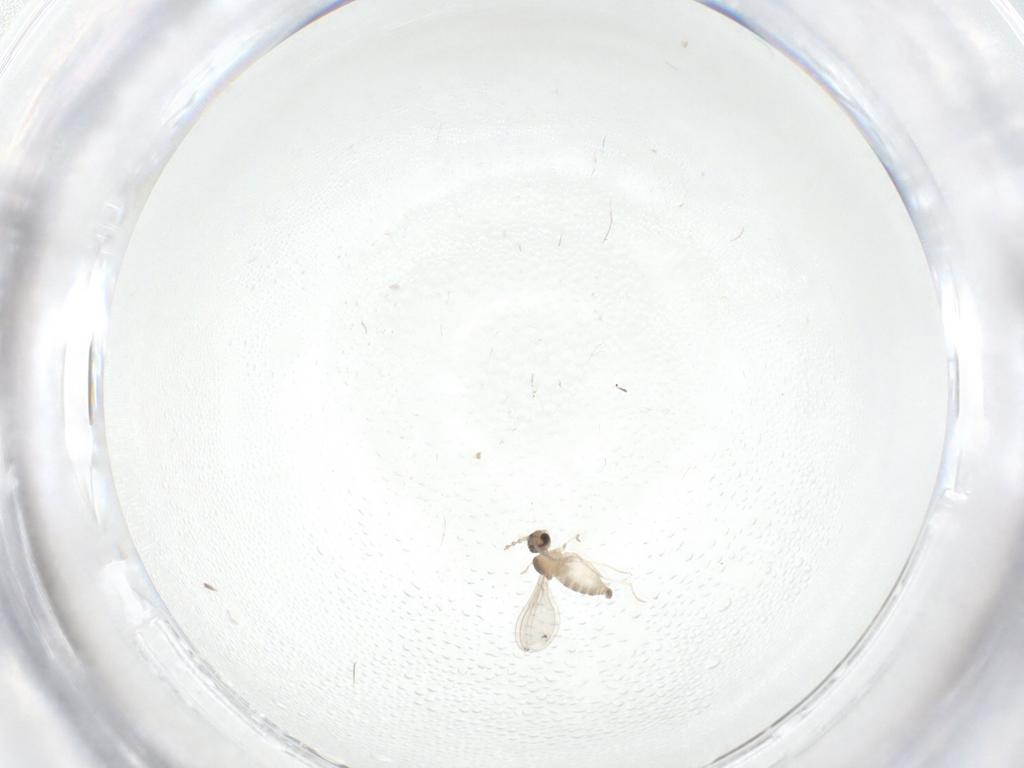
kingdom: Animalia
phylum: Arthropoda
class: Insecta
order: Diptera
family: Cecidomyiidae
